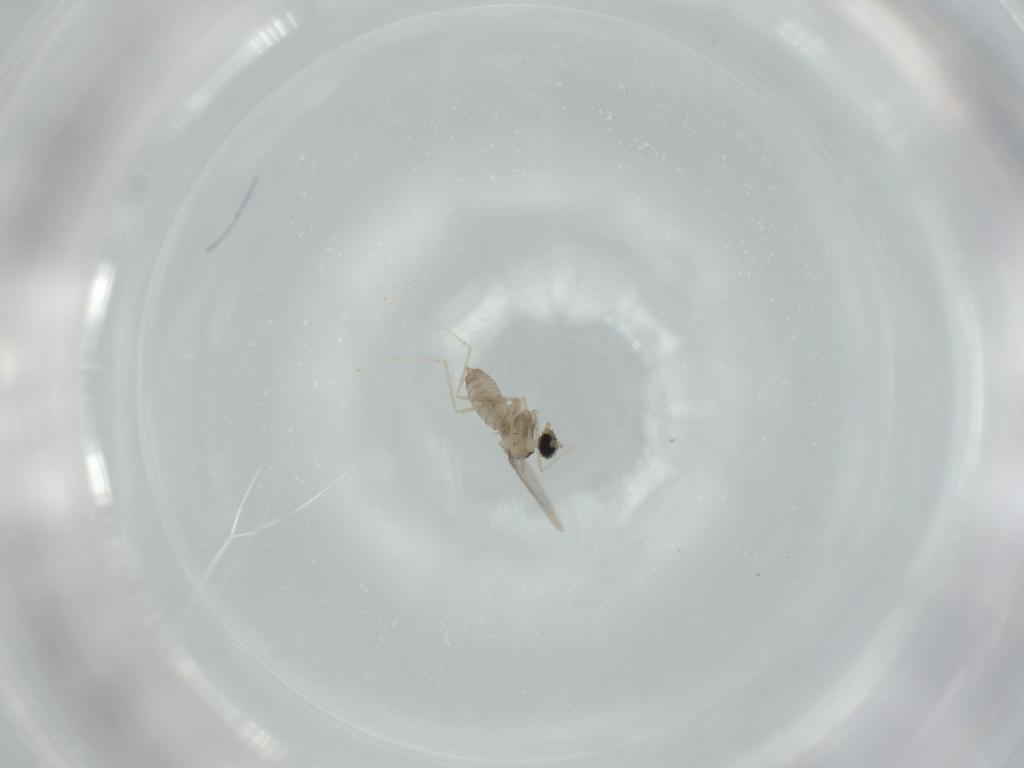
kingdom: Animalia
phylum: Arthropoda
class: Insecta
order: Diptera
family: Cecidomyiidae
